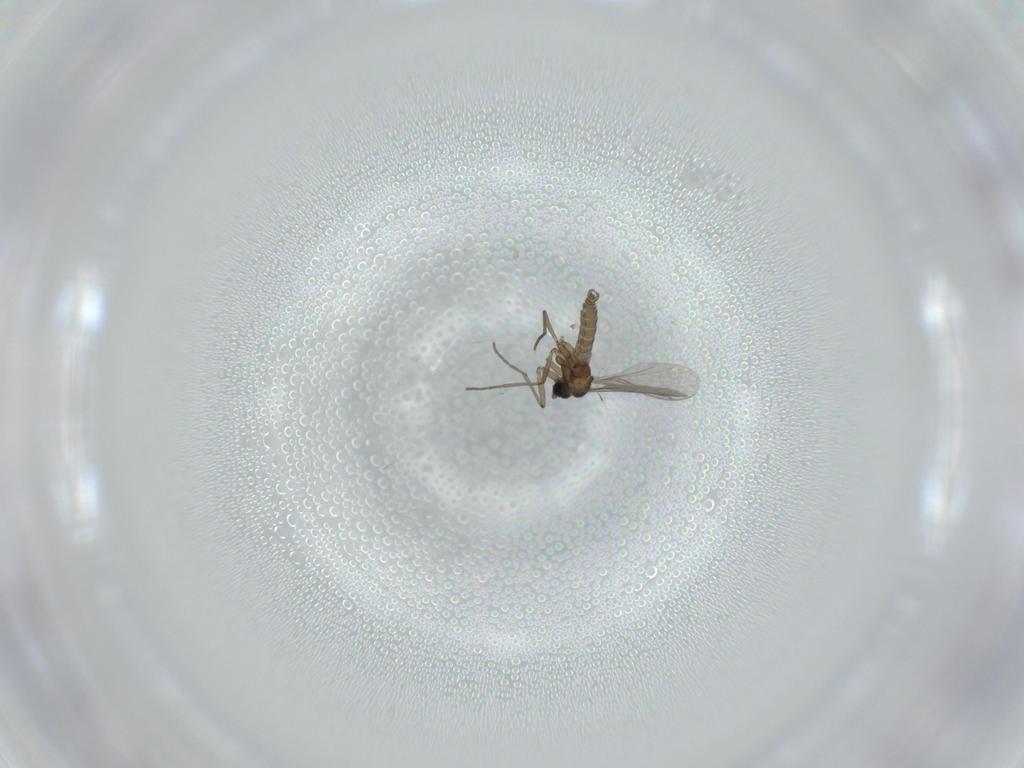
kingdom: Animalia
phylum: Arthropoda
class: Insecta
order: Diptera
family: Sciaridae
